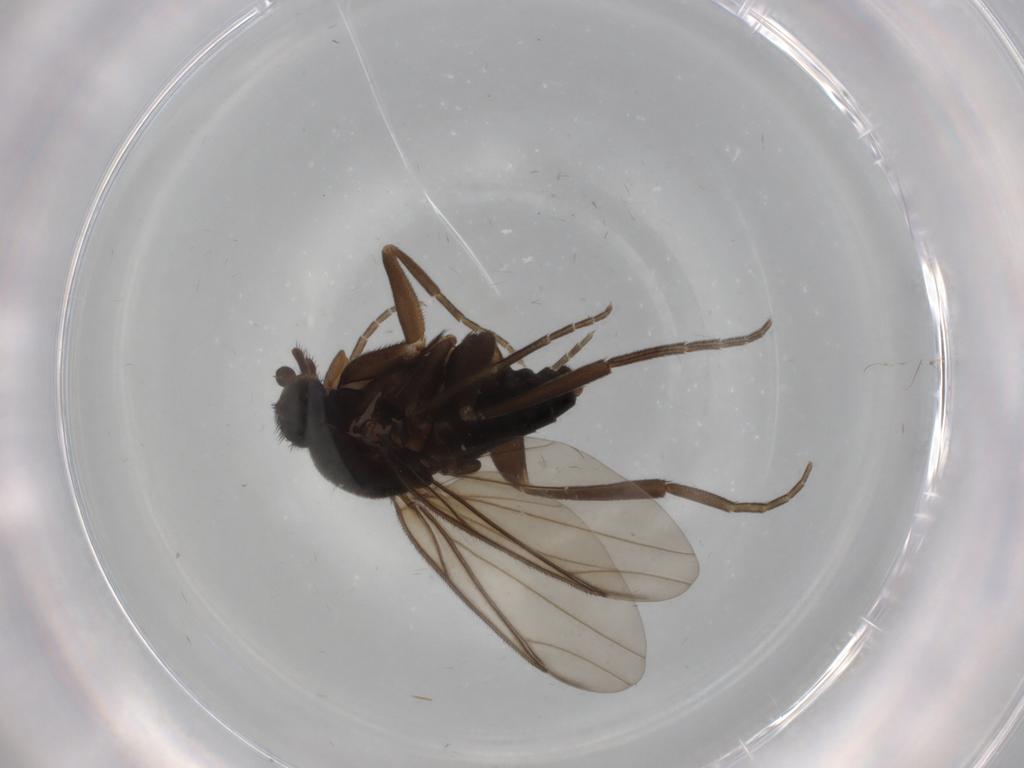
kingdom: Animalia
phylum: Arthropoda
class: Insecta
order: Diptera
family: Phoridae
